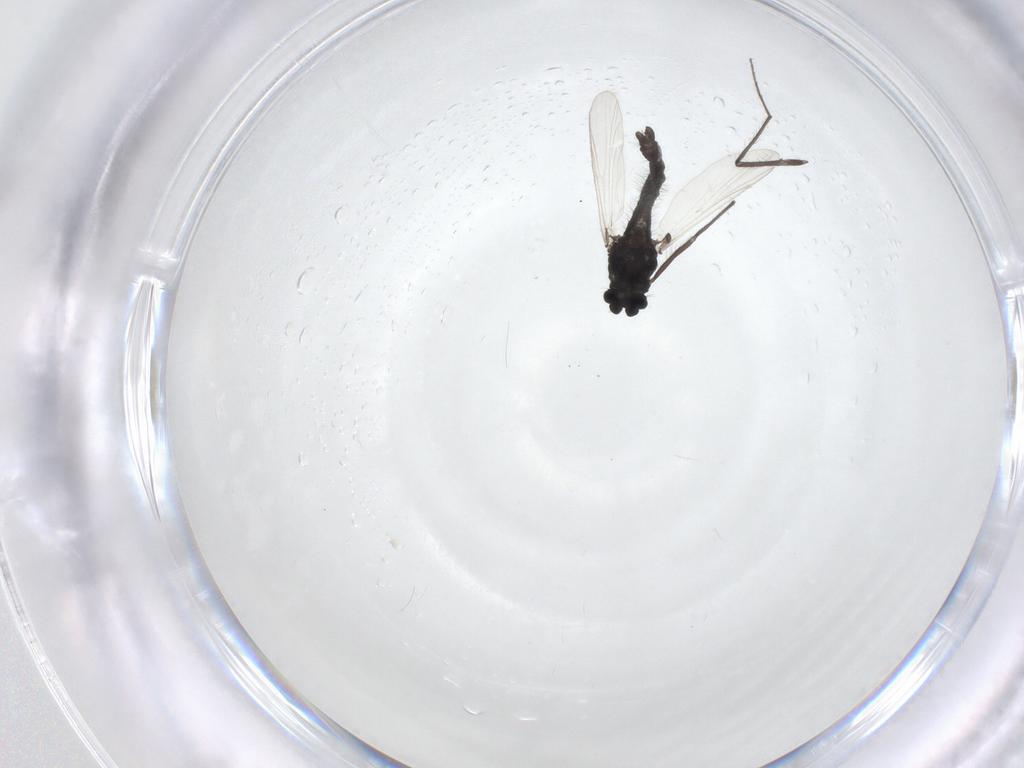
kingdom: Animalia
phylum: Arthropoda
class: Insecta
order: Diptera
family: Chironomidae
